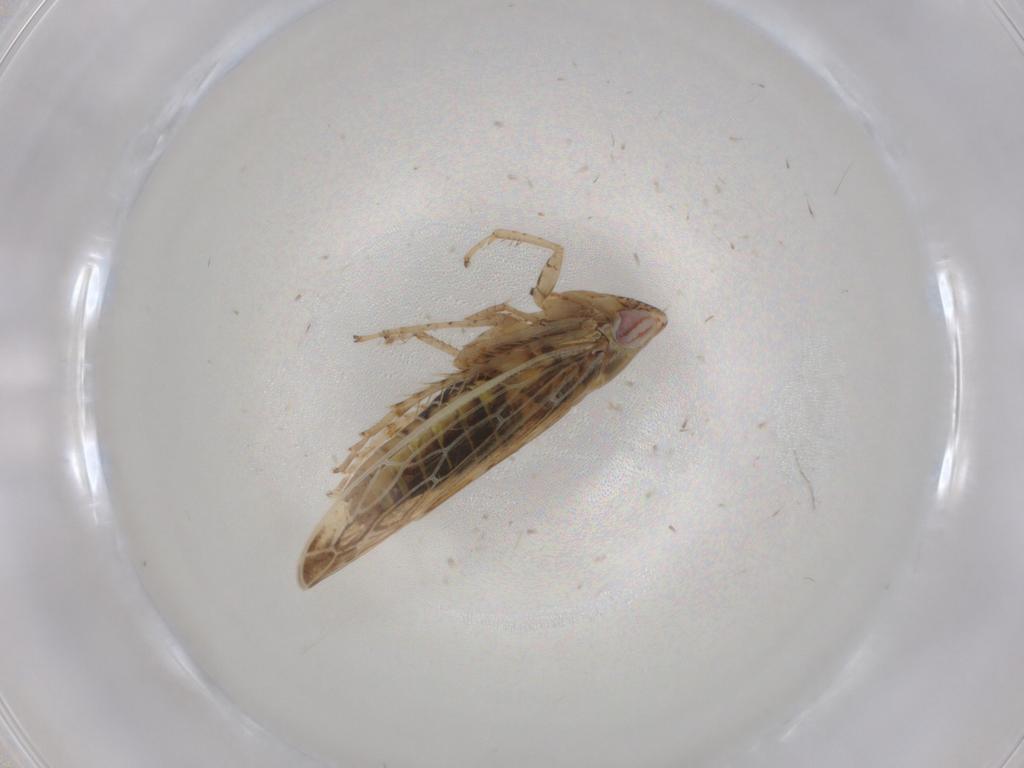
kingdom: Animalia
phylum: Arthropoda
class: Insecta
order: Hemiptera
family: Cicadellidae
